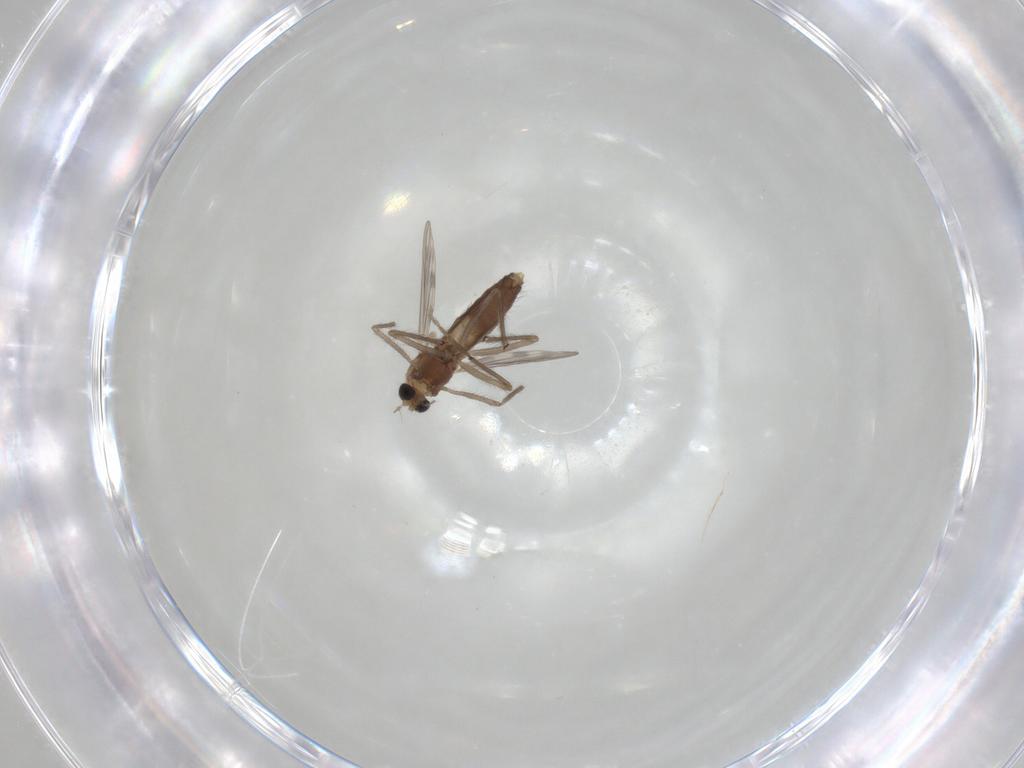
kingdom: Animalia
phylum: Arthropoda
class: Insecta
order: Diptera
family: Chironomidae
